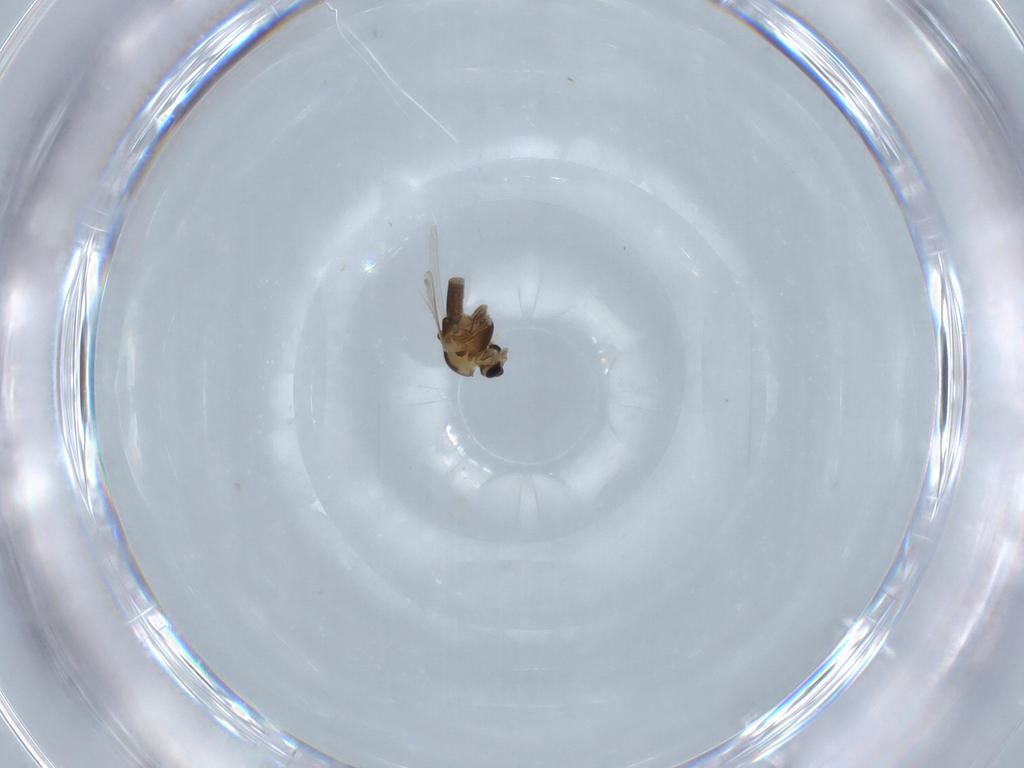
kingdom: Animalia
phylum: Arthropoda
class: Insecta
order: Diptera
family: Chironomidae
